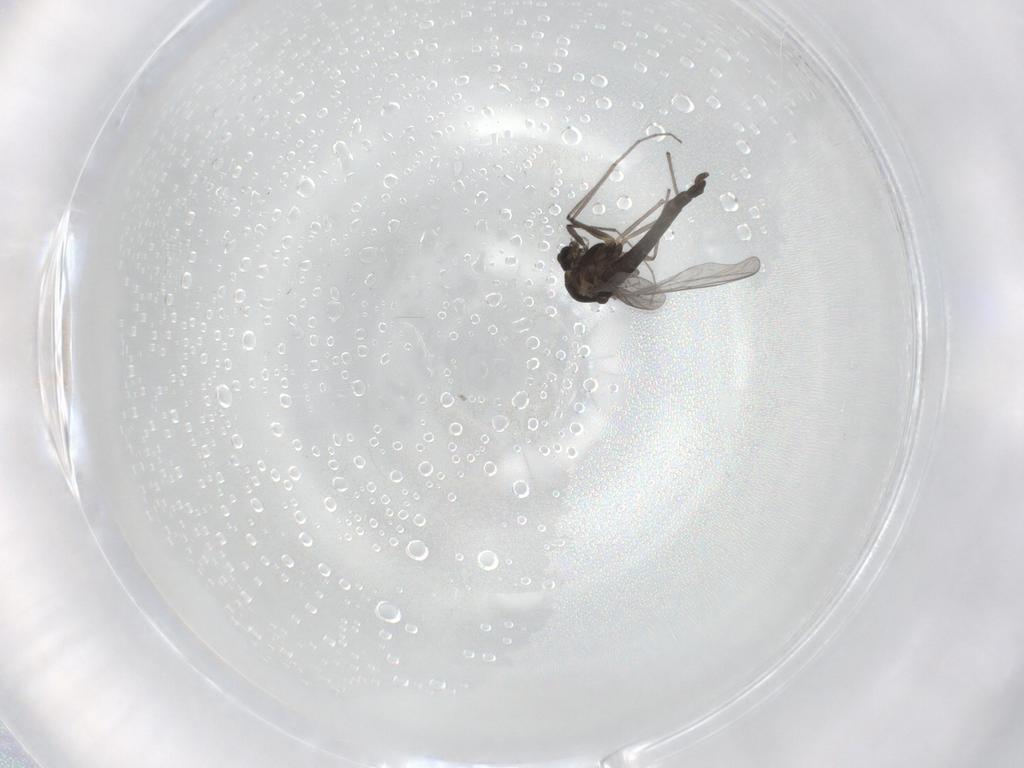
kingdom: Animalia
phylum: Arthropoda
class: Insecta
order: Diptera
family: Chironomidae
